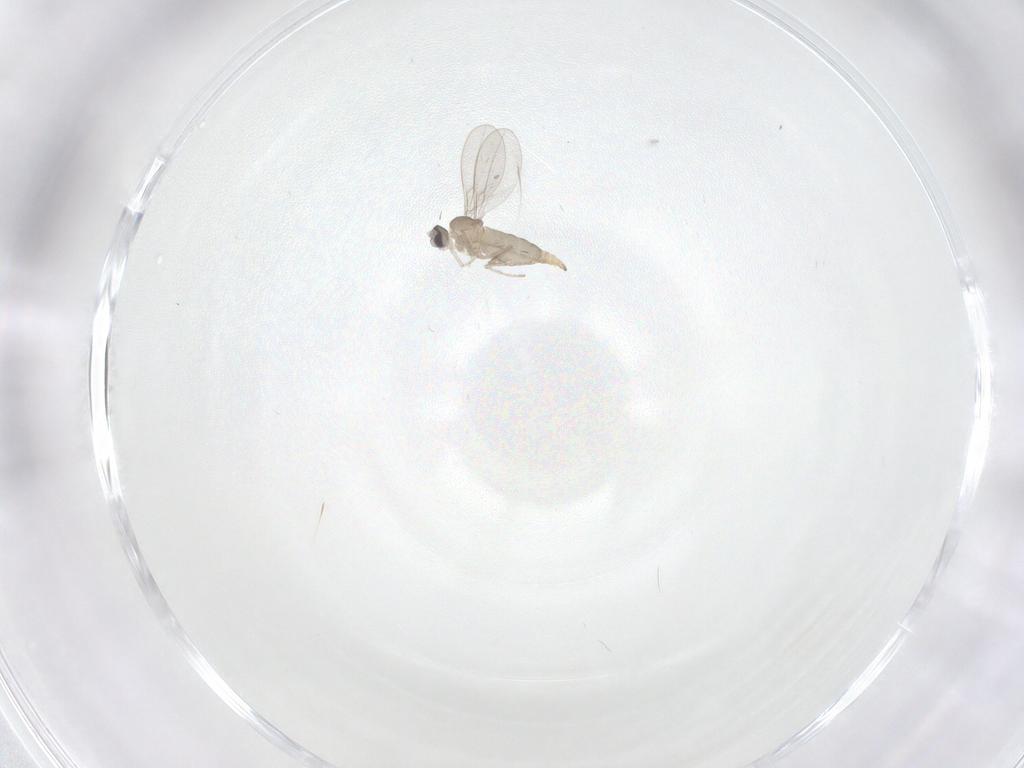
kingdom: Animalia
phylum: Arthropoda
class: Insecta
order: Diptera
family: Cecidomyiidae
